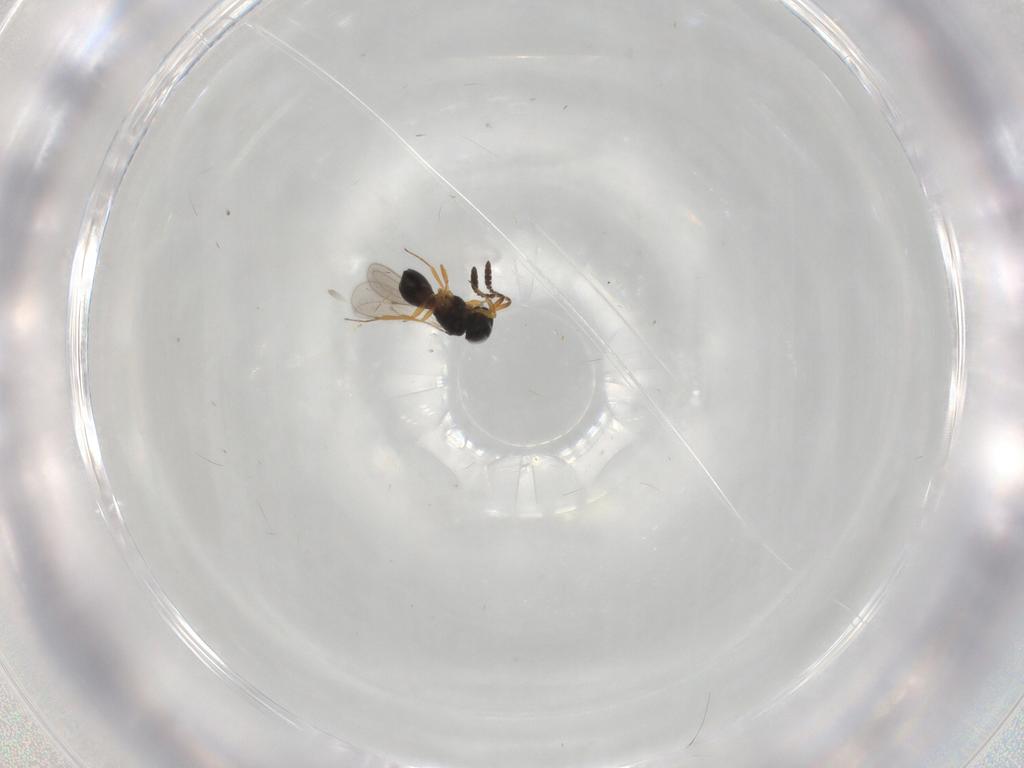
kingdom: Animalia
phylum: Arthropoda
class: Insecta
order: Hymenoptera
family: Scelionidae
